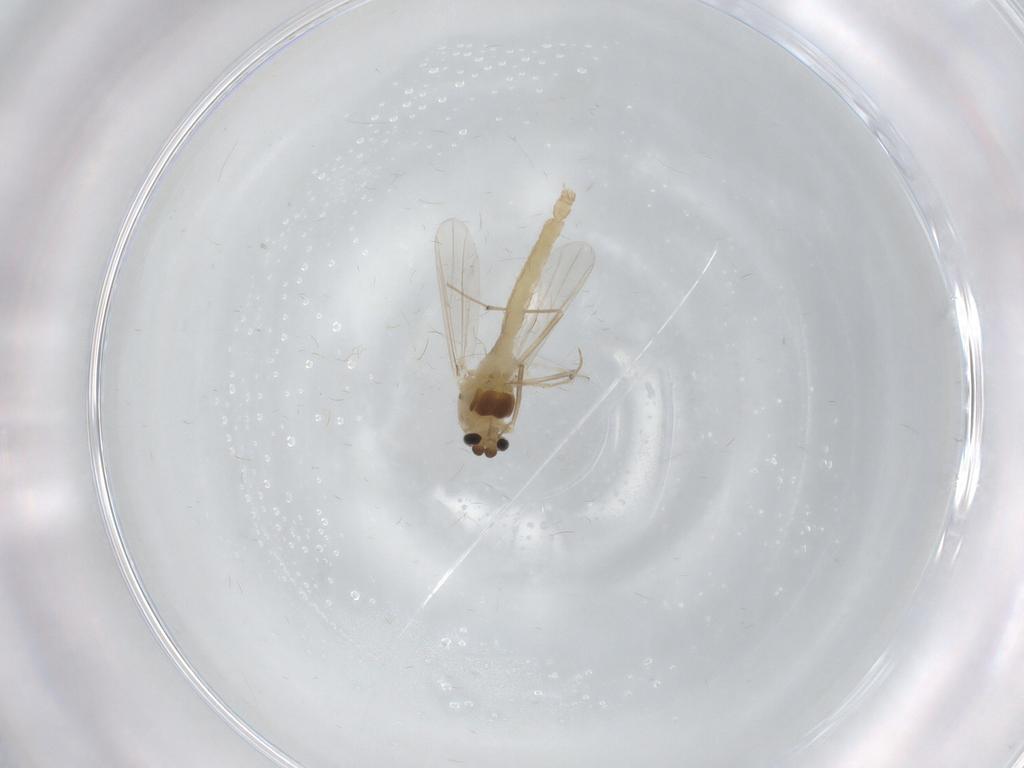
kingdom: Animalia
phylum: Arthropoda
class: Insecta
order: Diptera
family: Chironomidae
